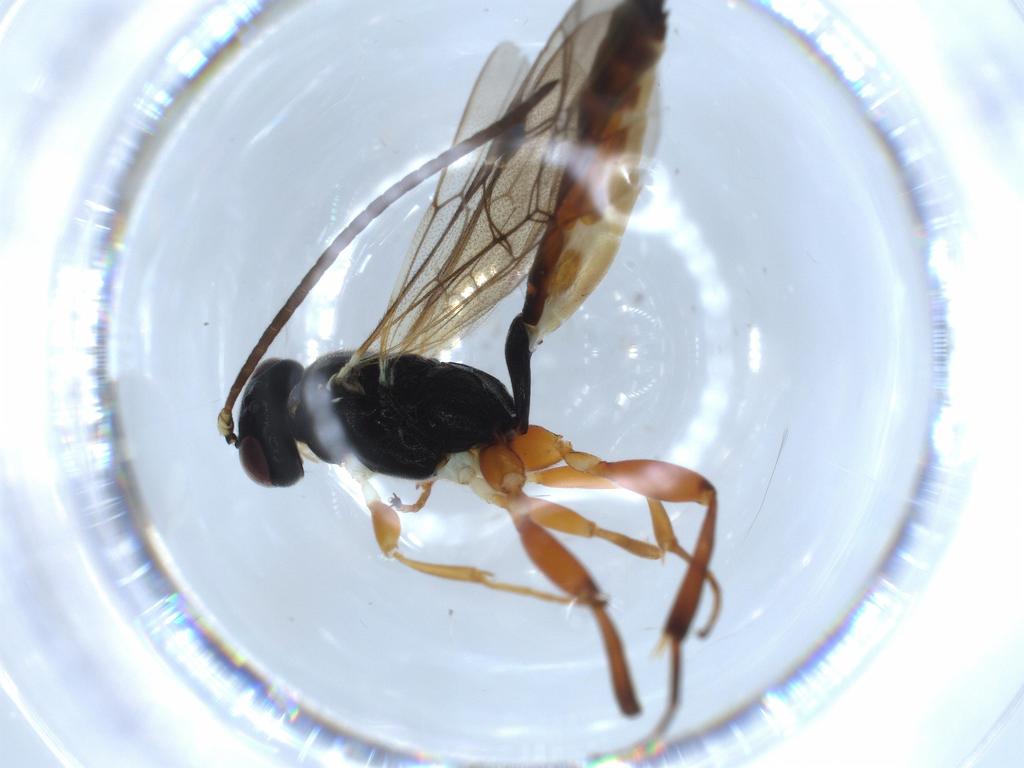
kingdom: Animalia
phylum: Arthropoda
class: Insecta
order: Hymenoptera
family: Ichneumonidae
